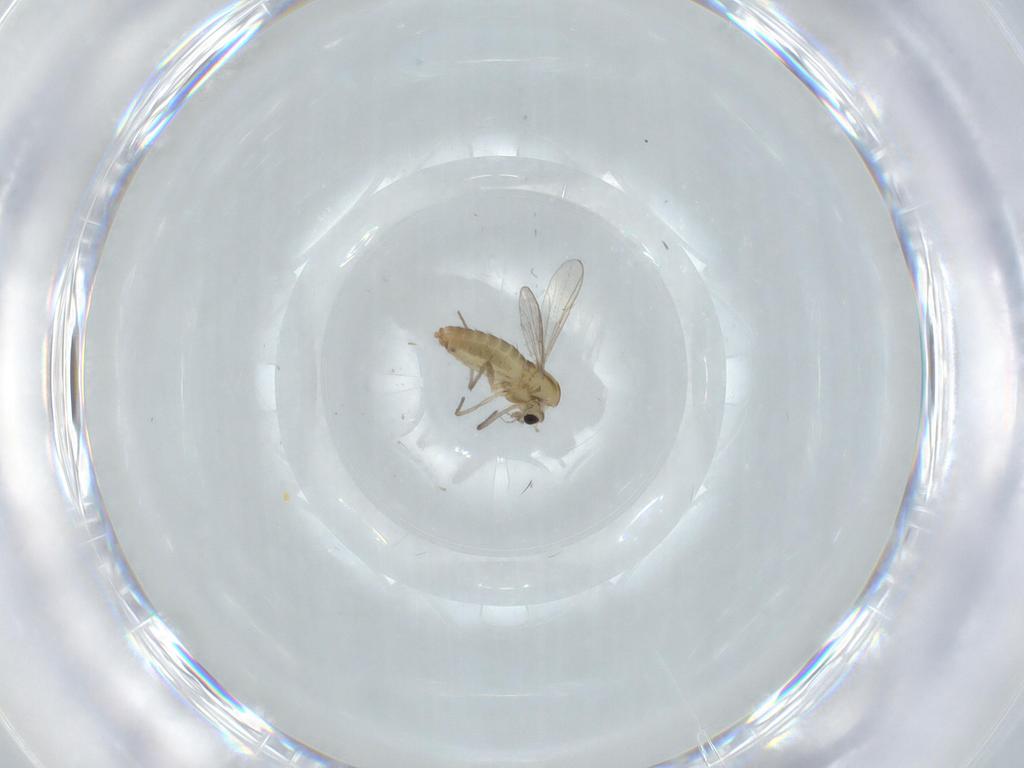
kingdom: Animalia
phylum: Arthropoda
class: Insecta
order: Diptera
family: Chironomidae
